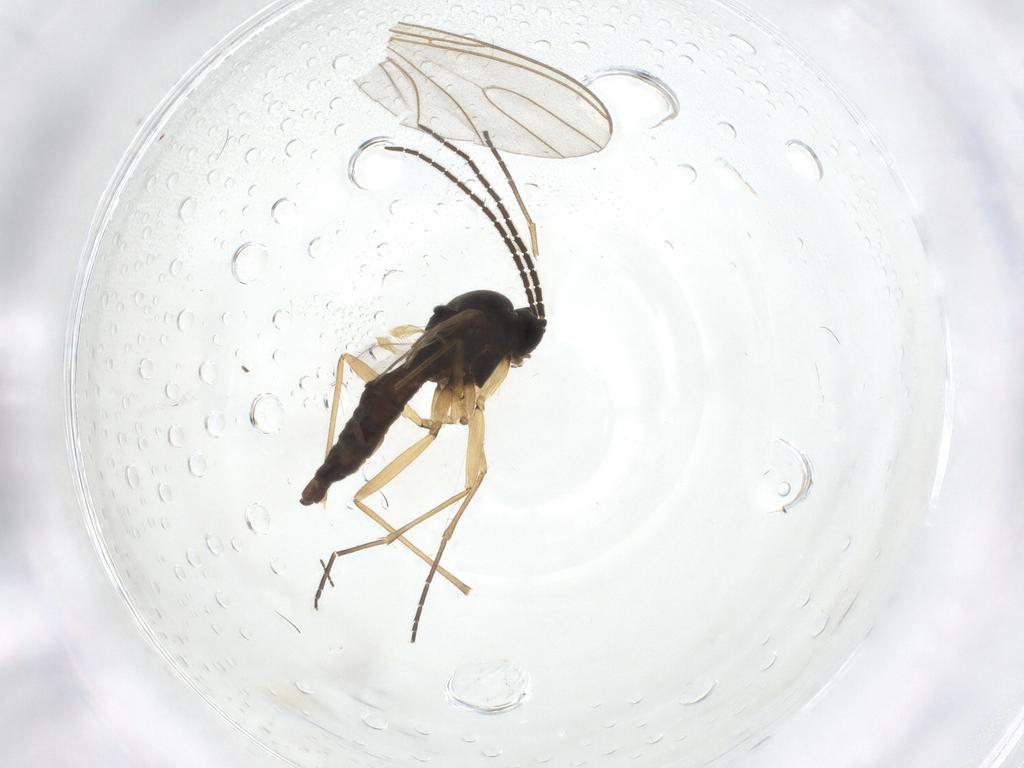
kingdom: Animalia
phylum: Arthropoda
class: Insecta
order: Diptera
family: Sciaridae
